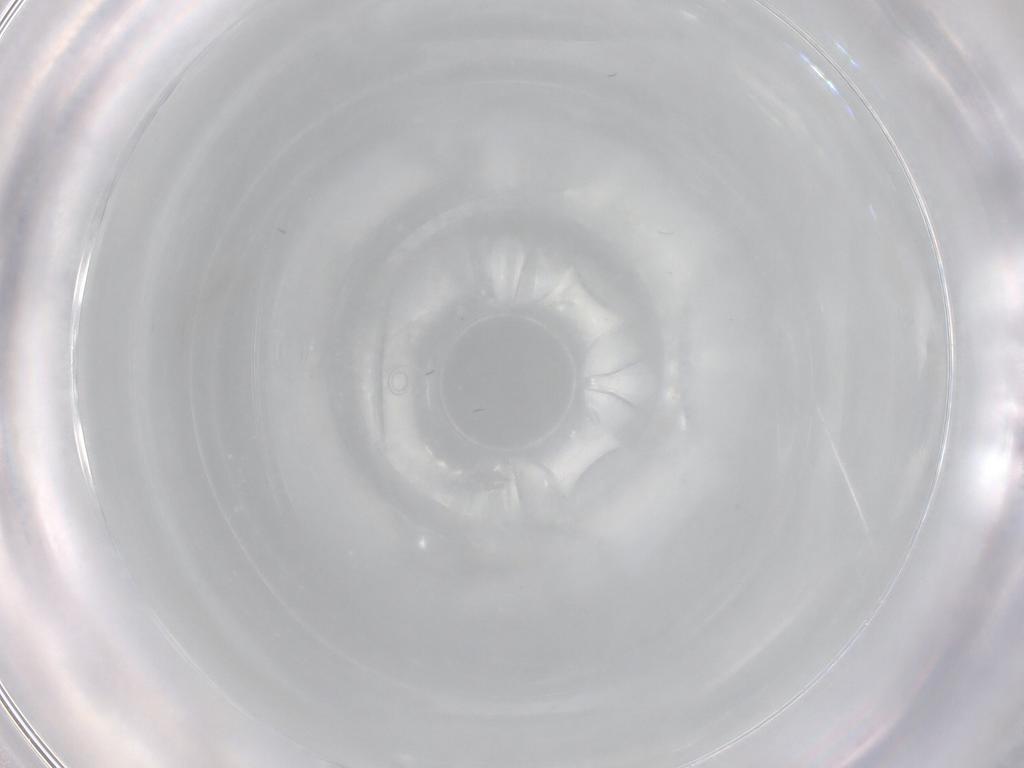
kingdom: Animalia
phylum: Arthropoda
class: Insecta
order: Diptera
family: Cecidomyiidae
